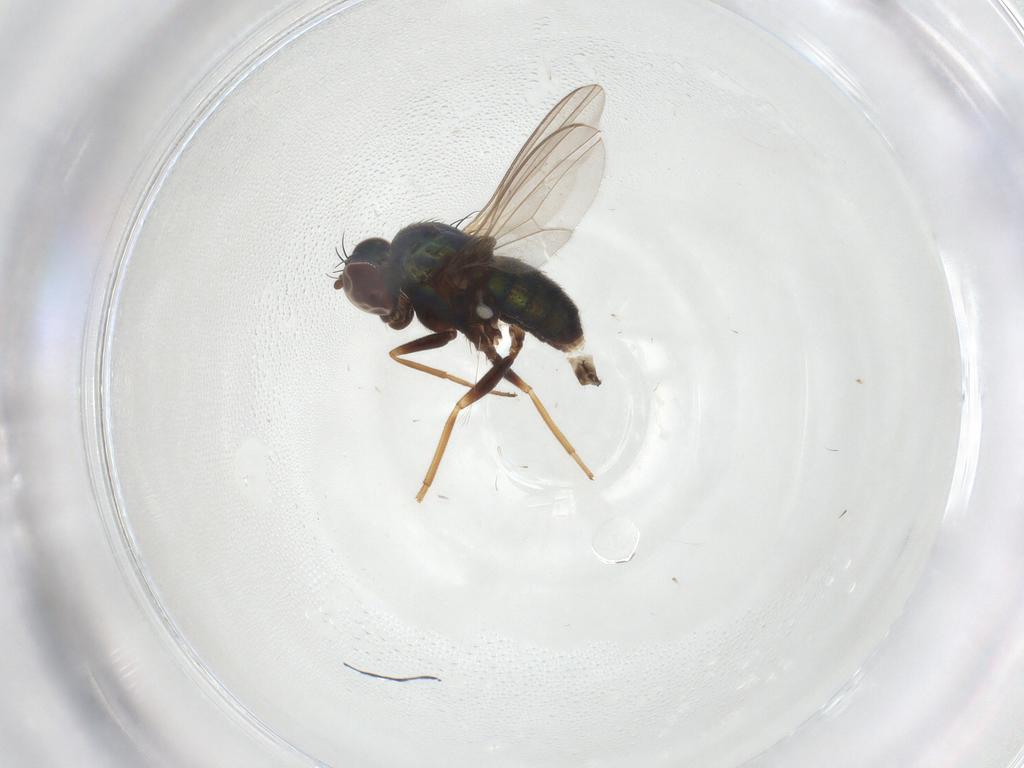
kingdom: Animalia
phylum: Arthropoda
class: Insecta
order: Diptera
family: Dolichopodidae
